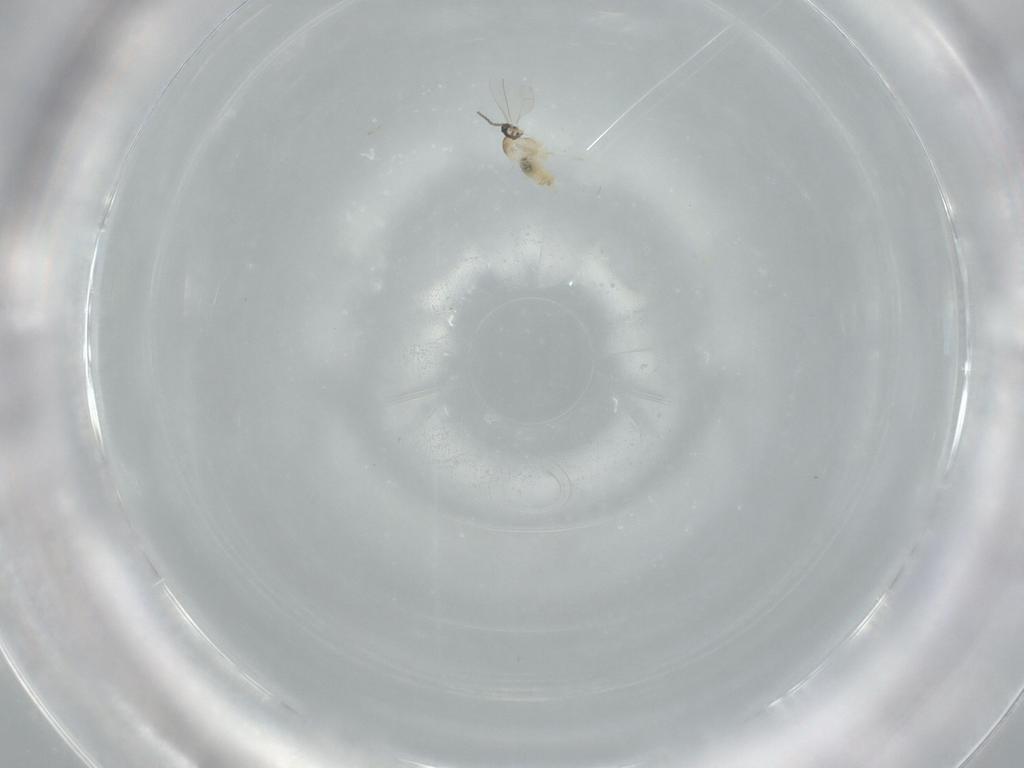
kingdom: Animalia
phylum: Arthropoda
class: Insecta
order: Diptera
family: Cecidomyiidae
